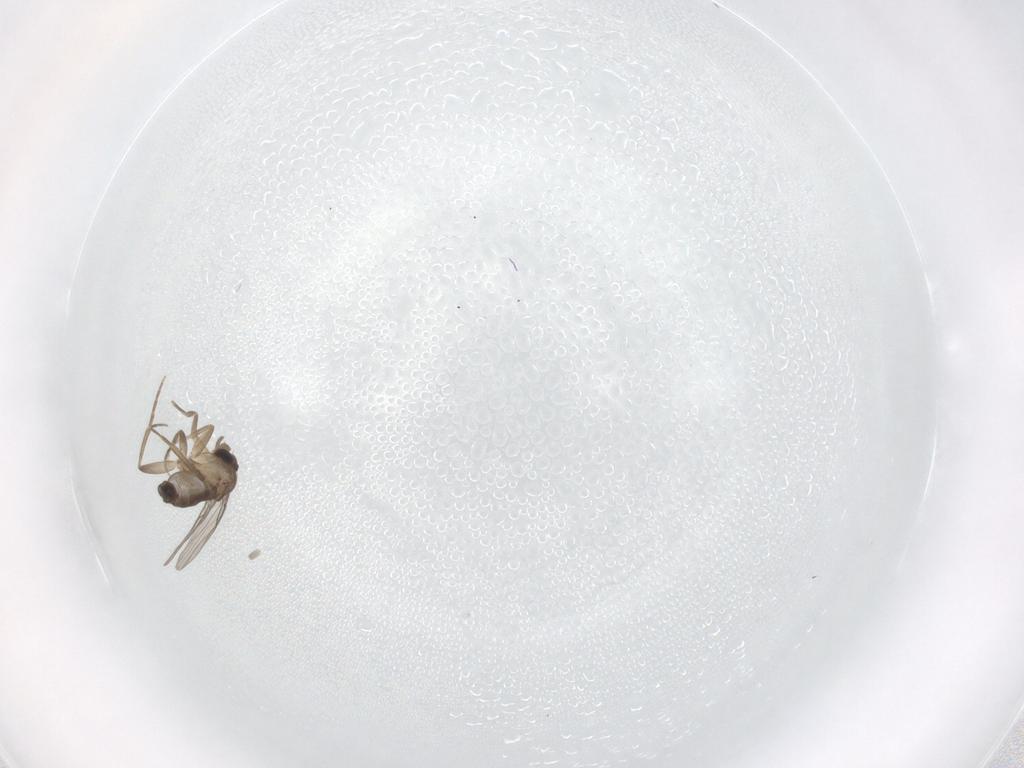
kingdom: Animalia
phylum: Arthropoda
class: Insecta
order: Diptera
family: Phoridae
